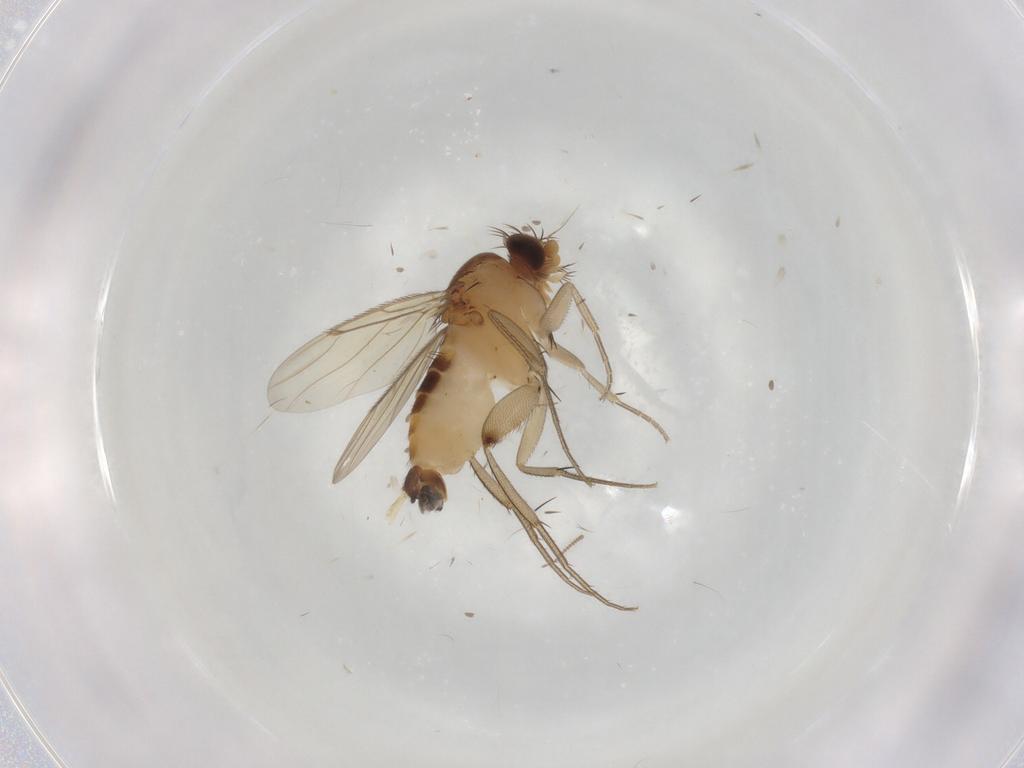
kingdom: Animalia
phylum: Arthropoda
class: Insecta
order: Diptera
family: Phoridae
